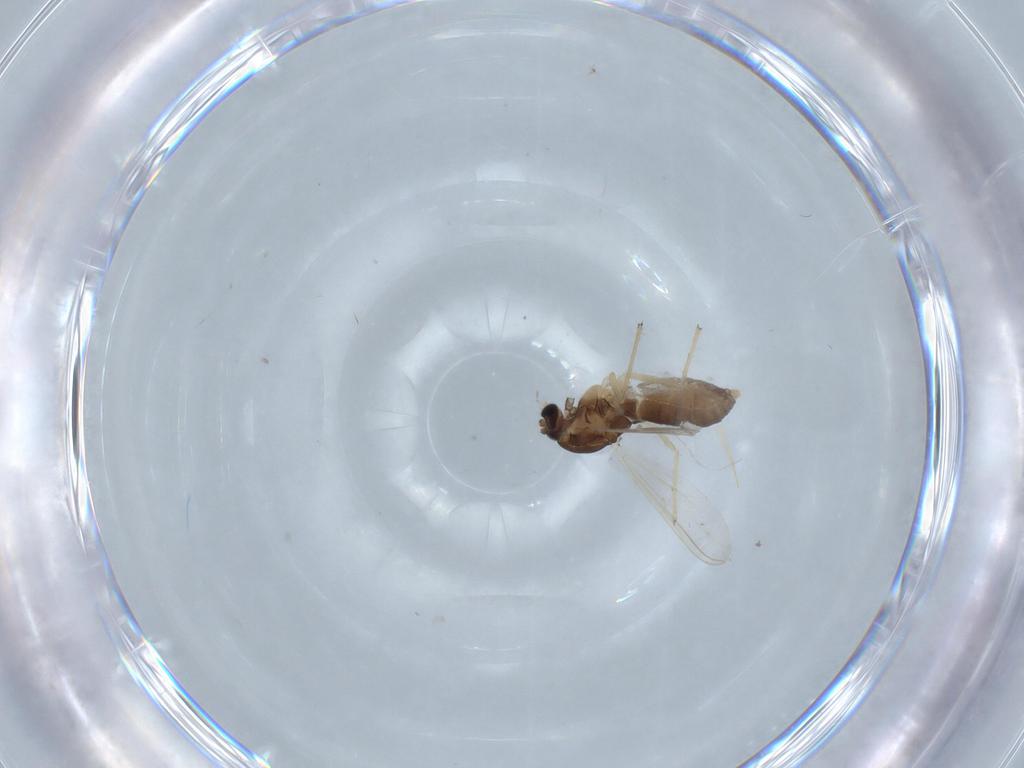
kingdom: Animalia
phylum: Arthropoda
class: Insecta
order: Diptera
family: Chironomidae
